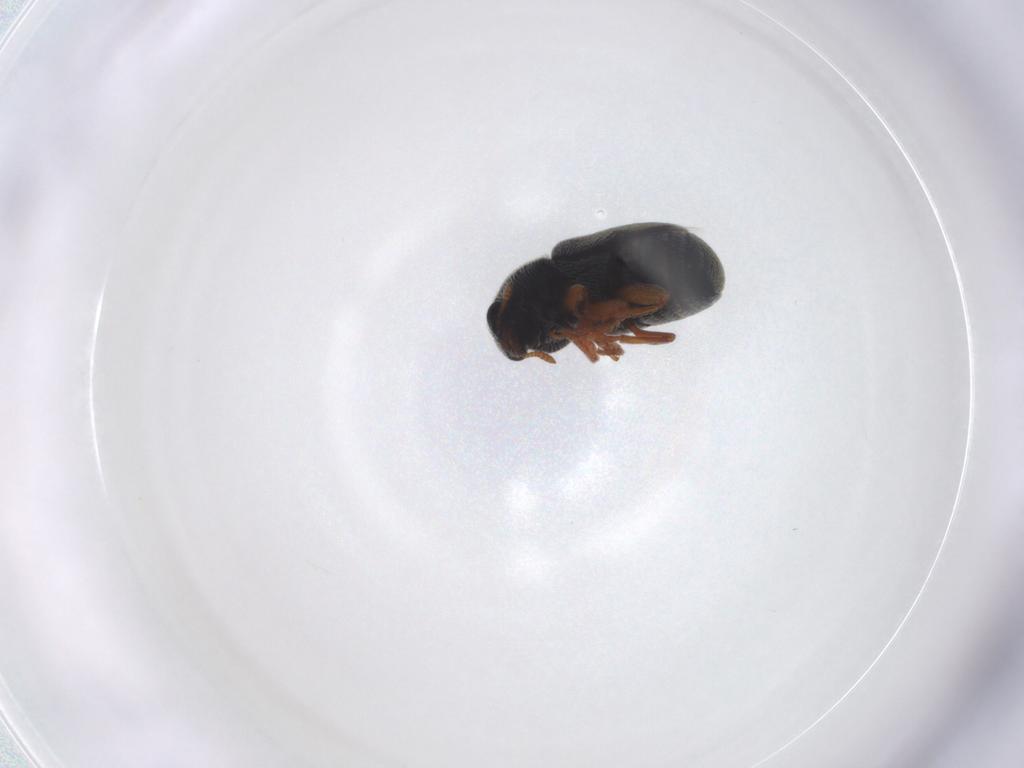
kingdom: Animalia
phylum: Arthropoda
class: Insecta
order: Coleoptera
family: Anthribidae
